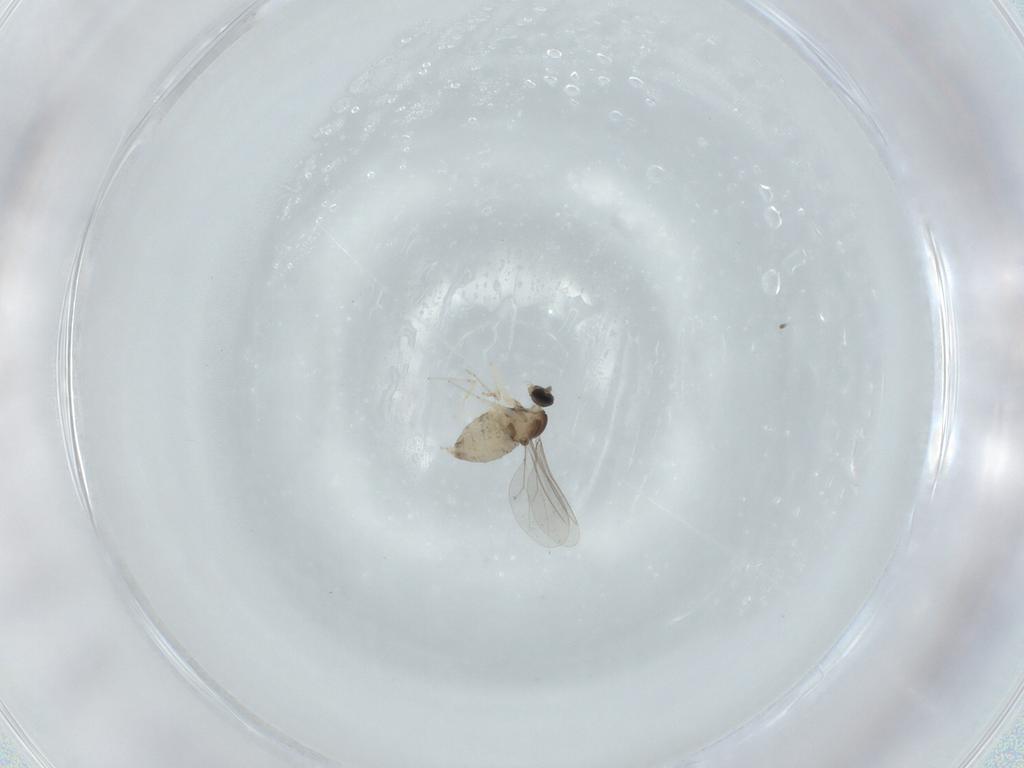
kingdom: Animalia
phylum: Arthropoda
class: Insecta
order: Diptera
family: Cecidomyiidae
